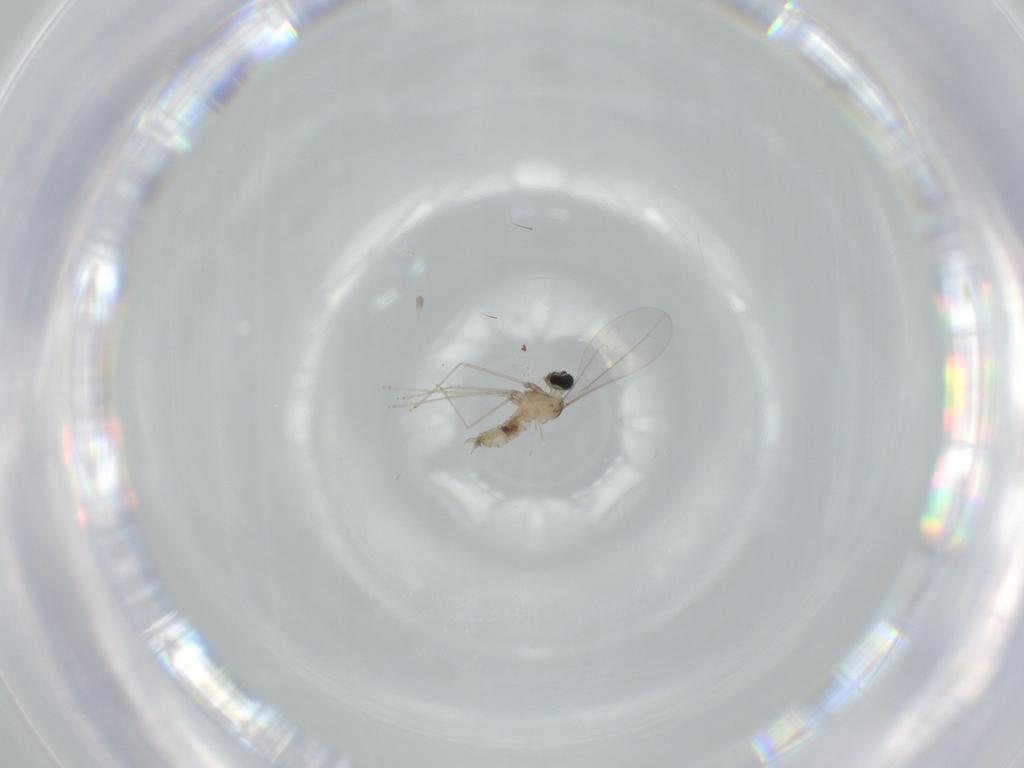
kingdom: Animalia
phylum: Arthropoda
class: Insecta
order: Diptera
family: Cecidomyiidae
